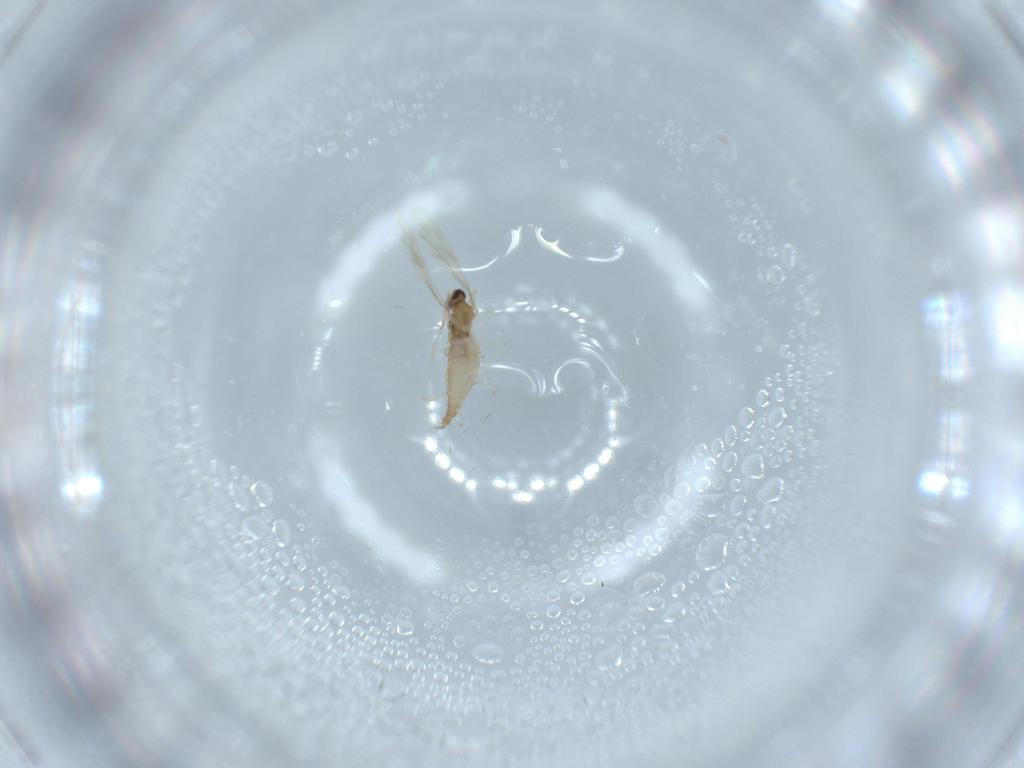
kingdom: Animalia
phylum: Arthropoda
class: Insecta
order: Diptera
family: Cecidomyiidae
